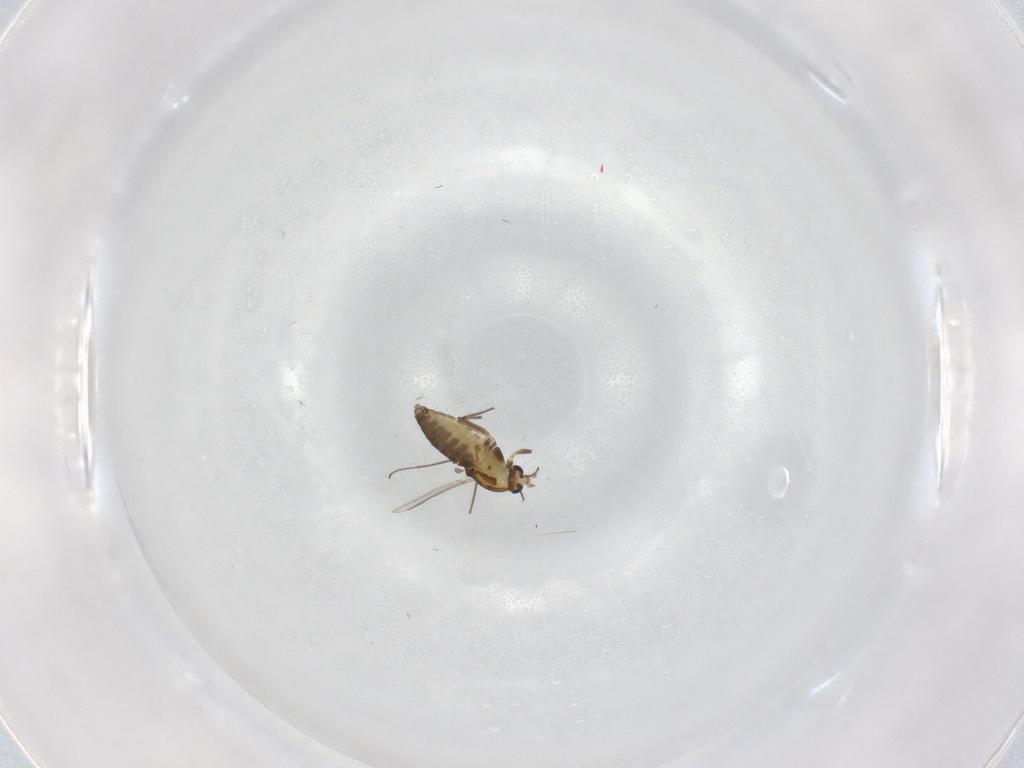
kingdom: Animalia
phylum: Arthropoda
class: Insecta
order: Diptera
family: Chironomidae
